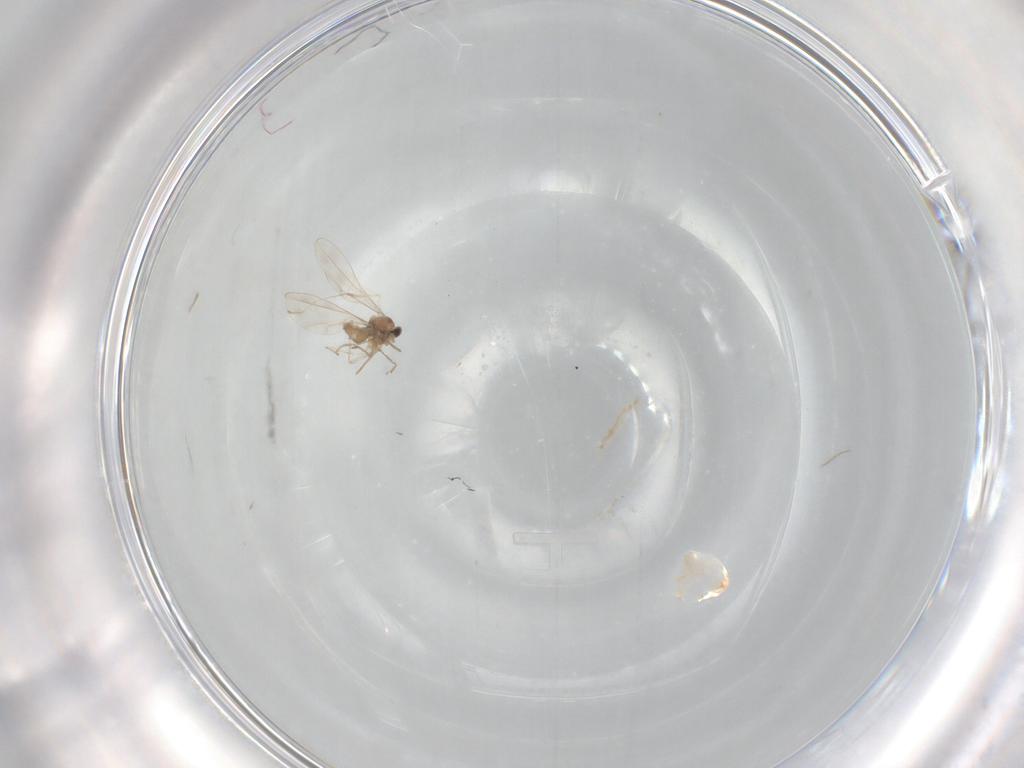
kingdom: Animalia
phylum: Arthropoda
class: Insecta
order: Diptera
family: Cecidomyiidae
